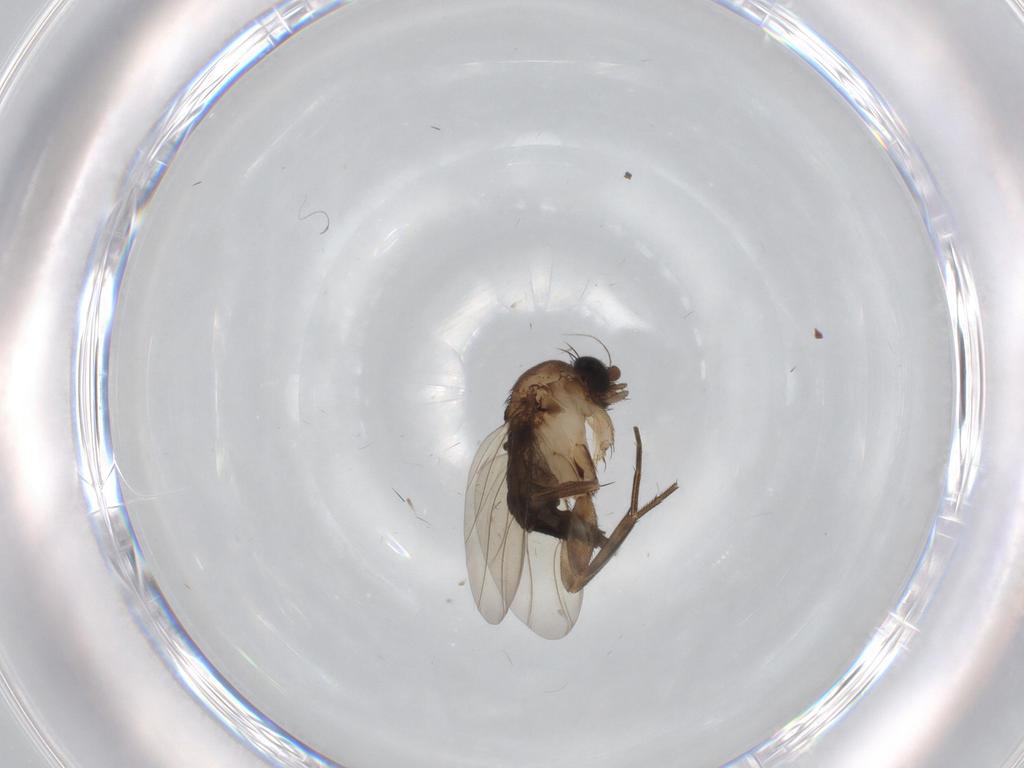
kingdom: Animalia
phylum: Arthropoda
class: Insecta
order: Diptera
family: Phoridae
